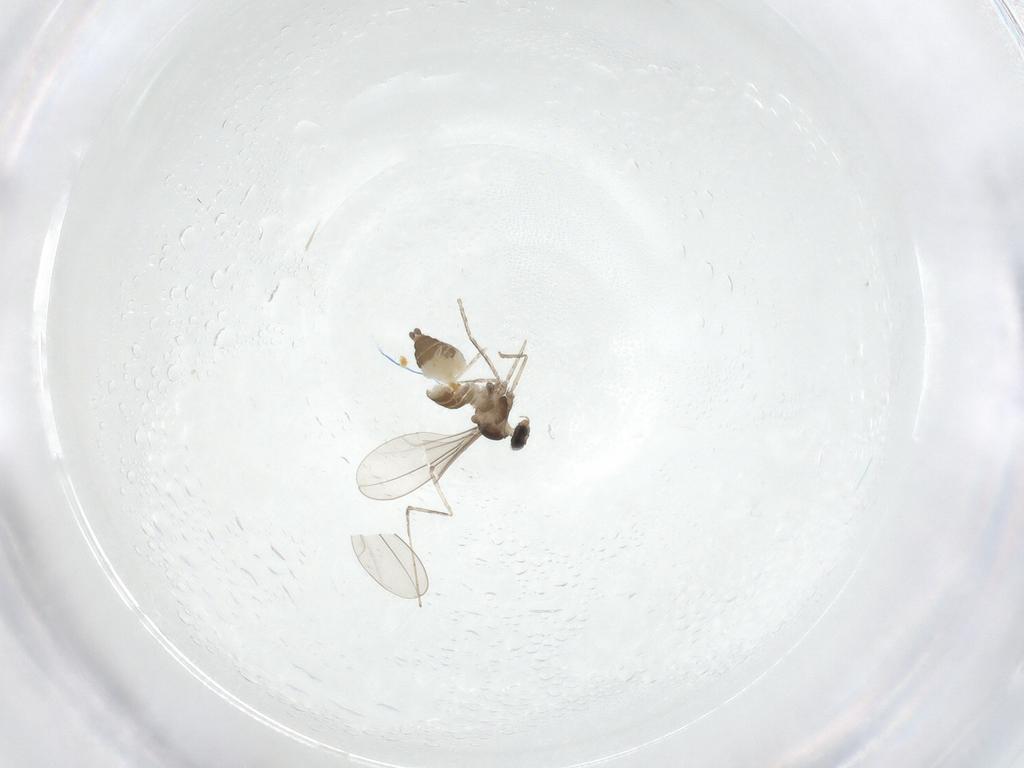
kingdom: Animalia
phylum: Arthropoda
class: Insecta
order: Diptera
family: Cecidomyiidae
